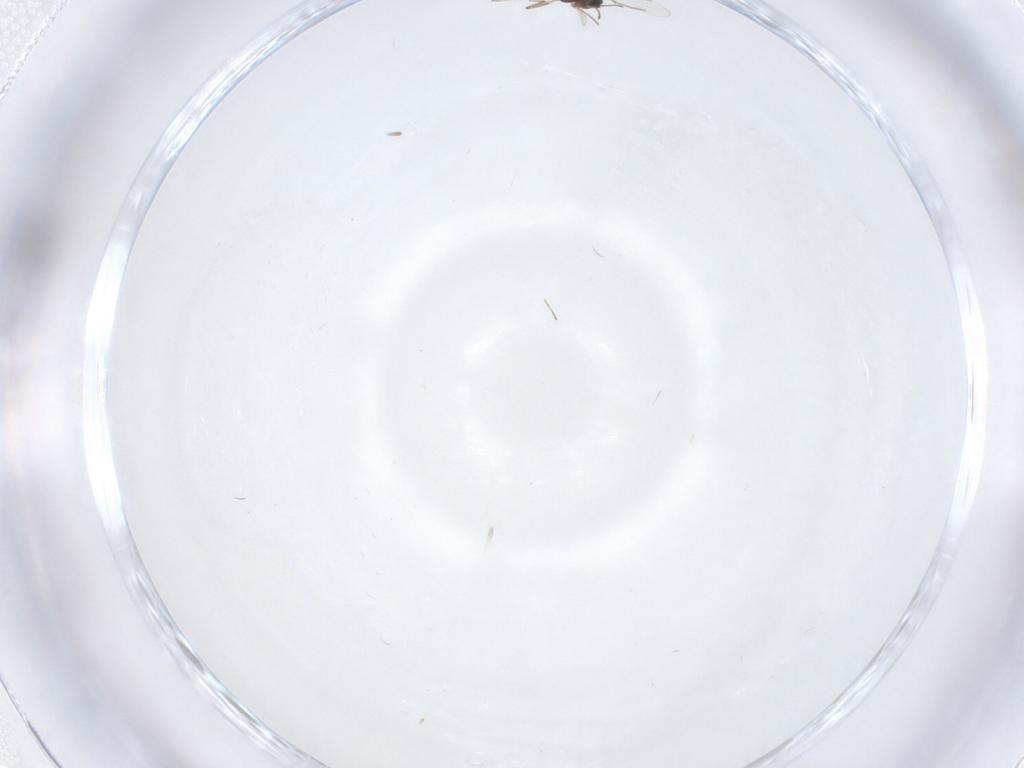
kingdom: Animalia
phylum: Arthropoda
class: Insecta
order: Diptera
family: Chironomidae
